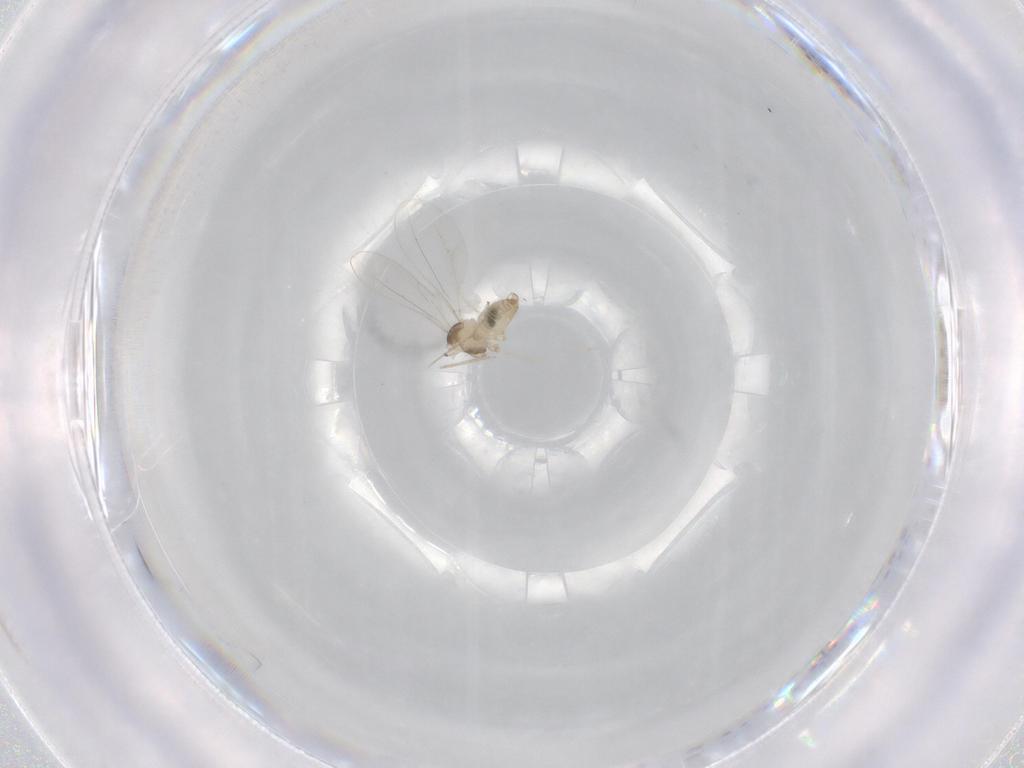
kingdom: Animalia
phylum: Arthropoda
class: Insecta
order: Diptera
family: Cecidomyiidae
